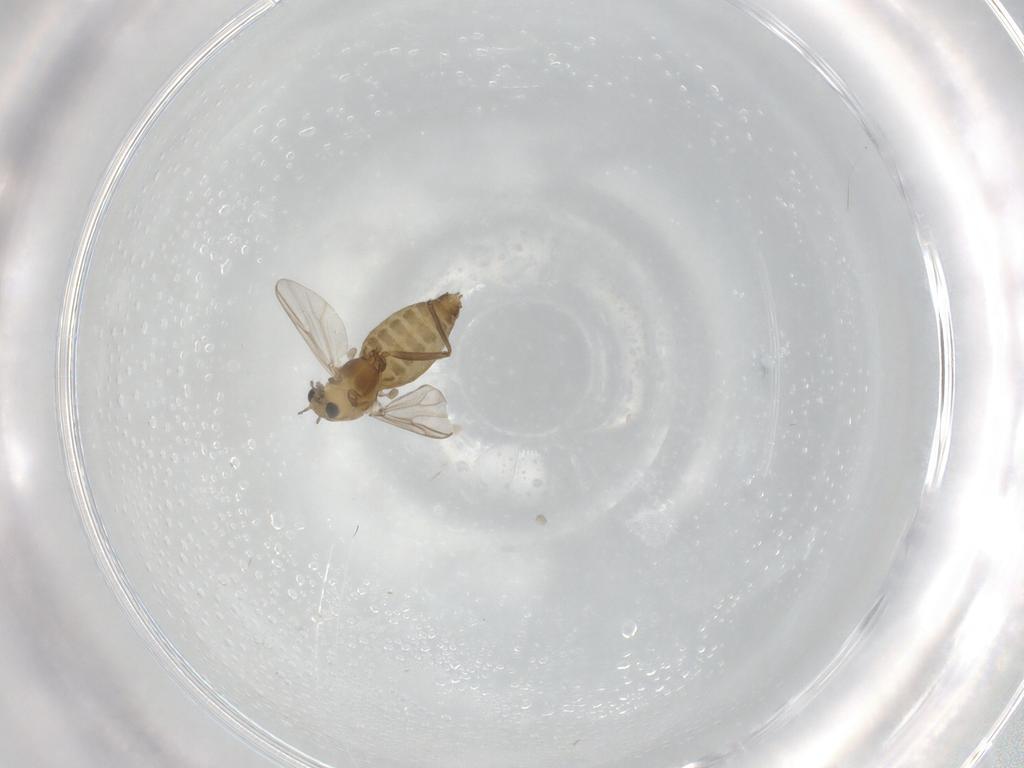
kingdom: Animalia
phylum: Arthropoda
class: Insecta
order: Diptera
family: Chironomidae
